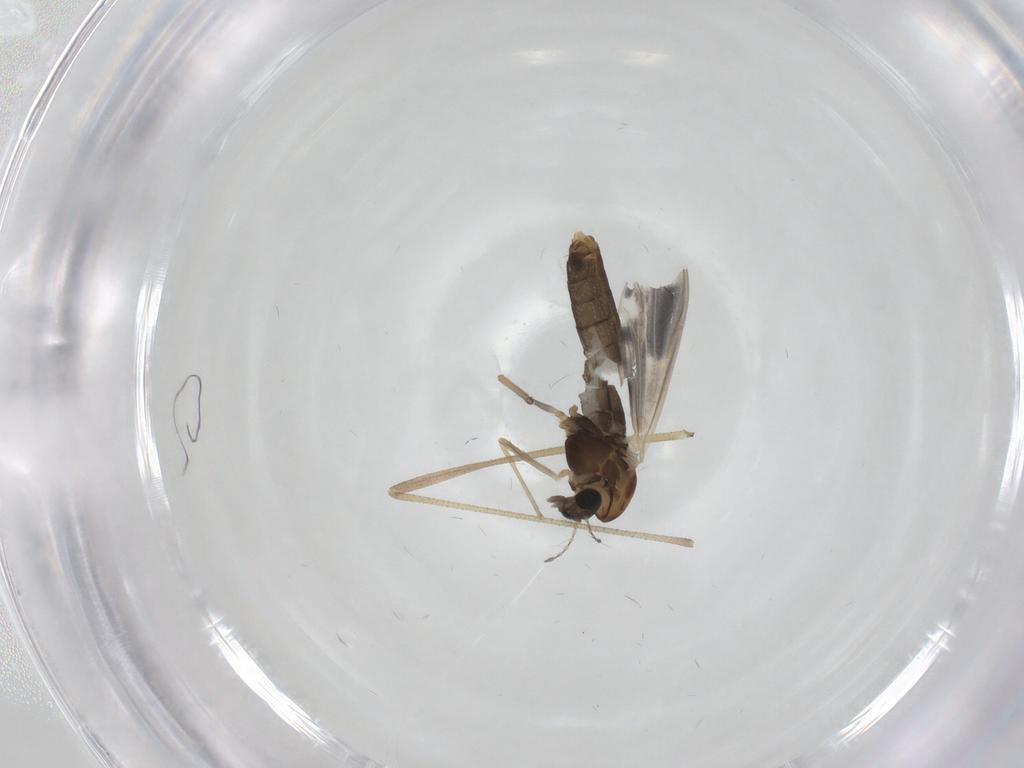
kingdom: Animalia
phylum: Arthropoda
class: Insecta
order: Diptera
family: Chironomidae
